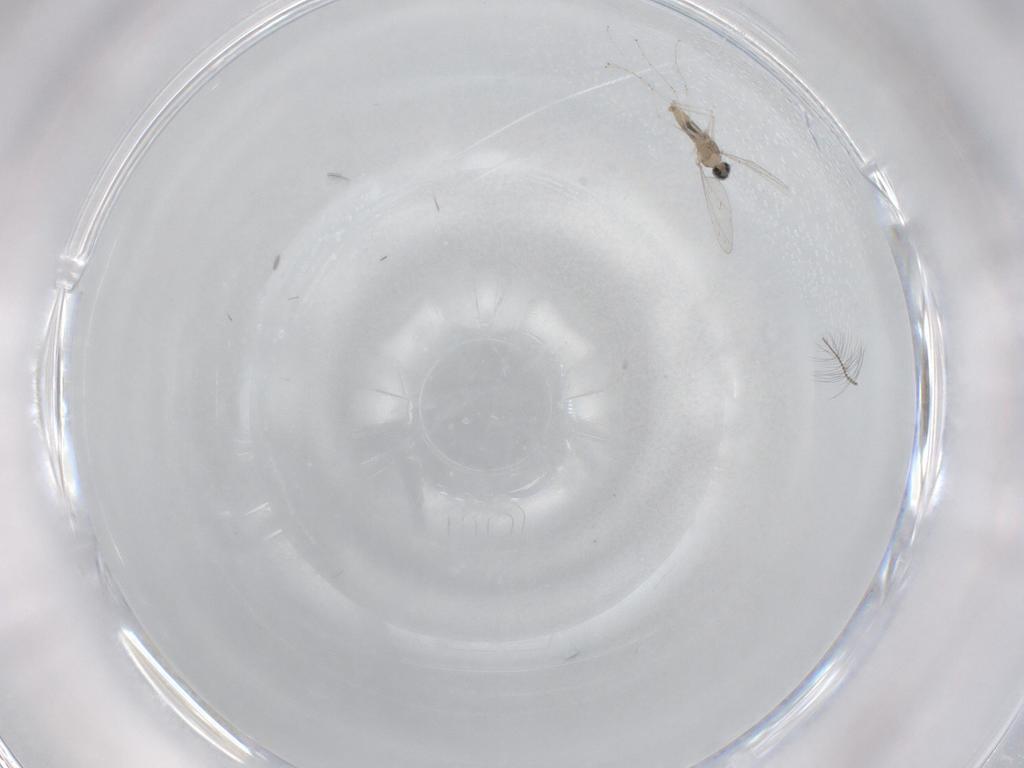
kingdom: Animalia
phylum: Arthropoda
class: Insecta
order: Diptera
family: Cecidomyiidae
